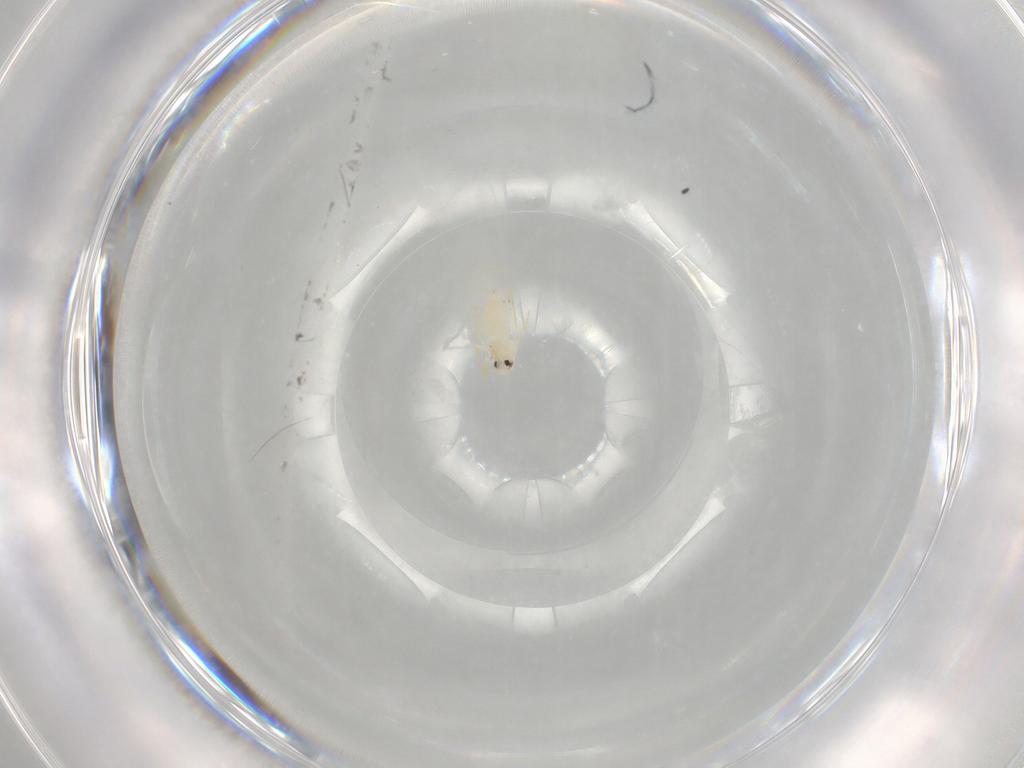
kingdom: Animalia
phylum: Arthropoda
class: Insecta
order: Hemiptera
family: Aleyrodidae
